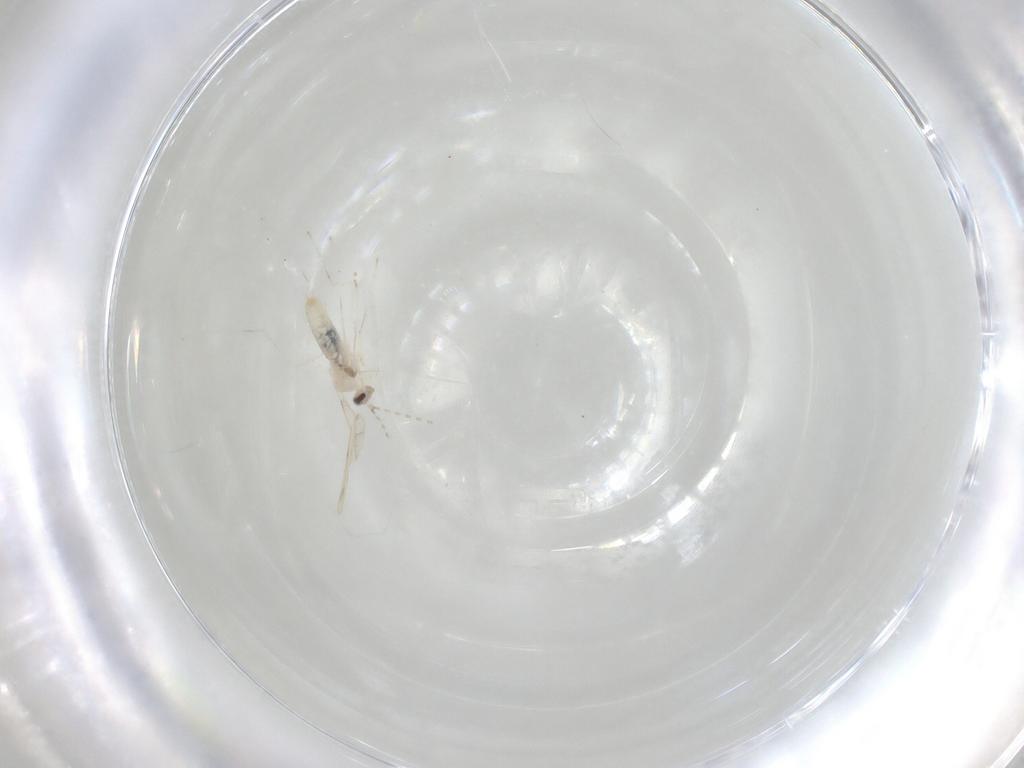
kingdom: Animalia
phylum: Arthropoda
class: Insecta
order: Diptera
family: Cecidomyiidae
